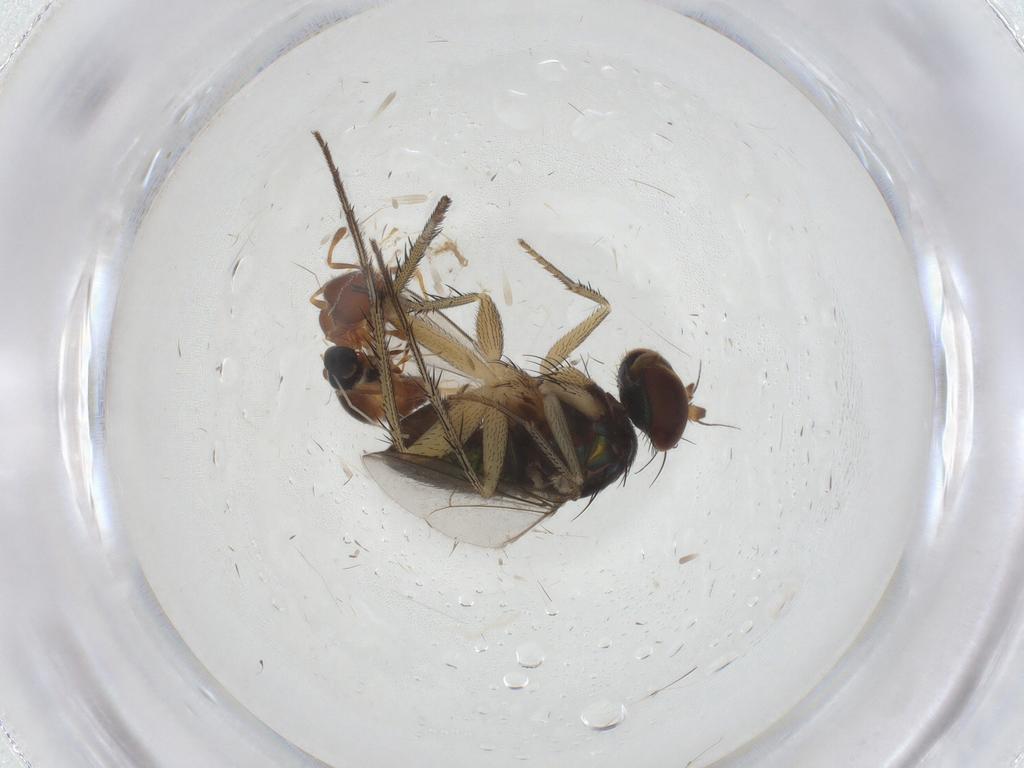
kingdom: Animalia
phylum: Arthropoda
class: Insecta
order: Diptera
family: Dolichopodidae
